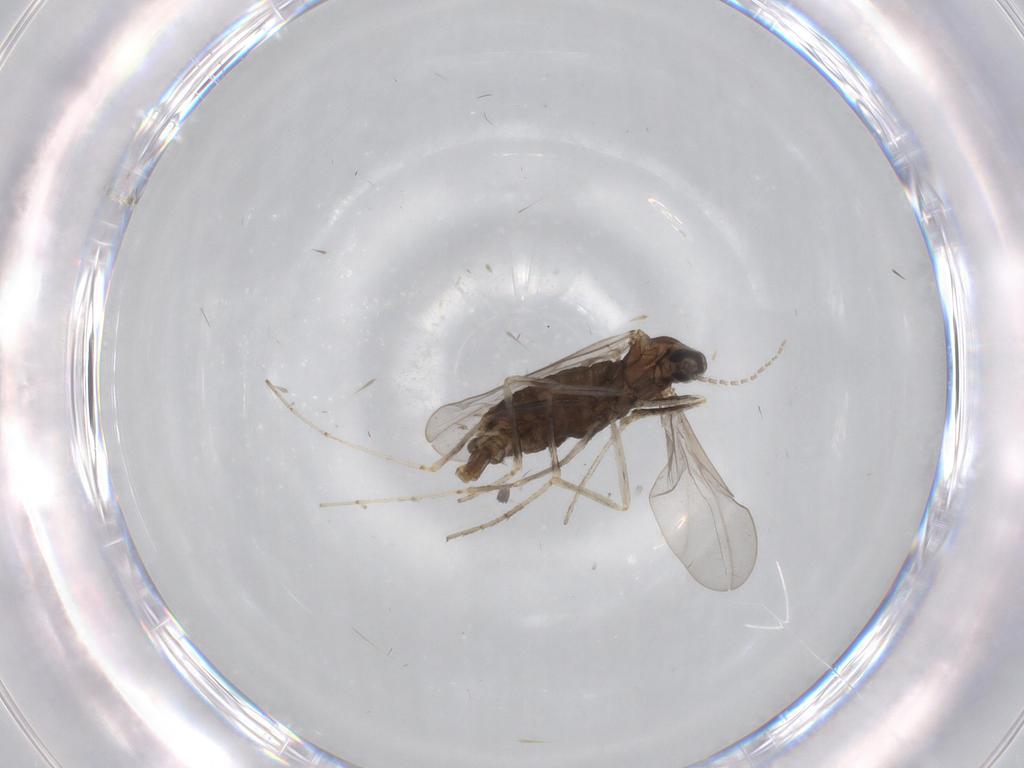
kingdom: Animalia
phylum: Arthropoda
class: Insecta
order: Diptera
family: Cecidomyiidae
